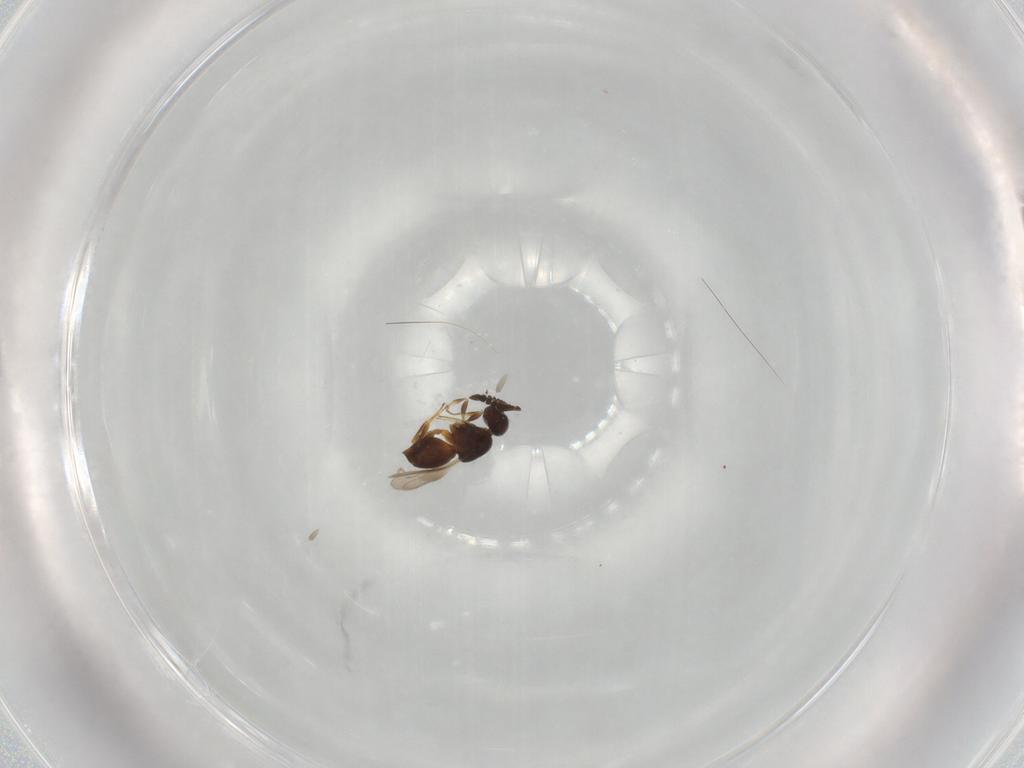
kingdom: Animalia
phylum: Arthropoda
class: Insecta
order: Hymenoptera
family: Ceraphronidae
